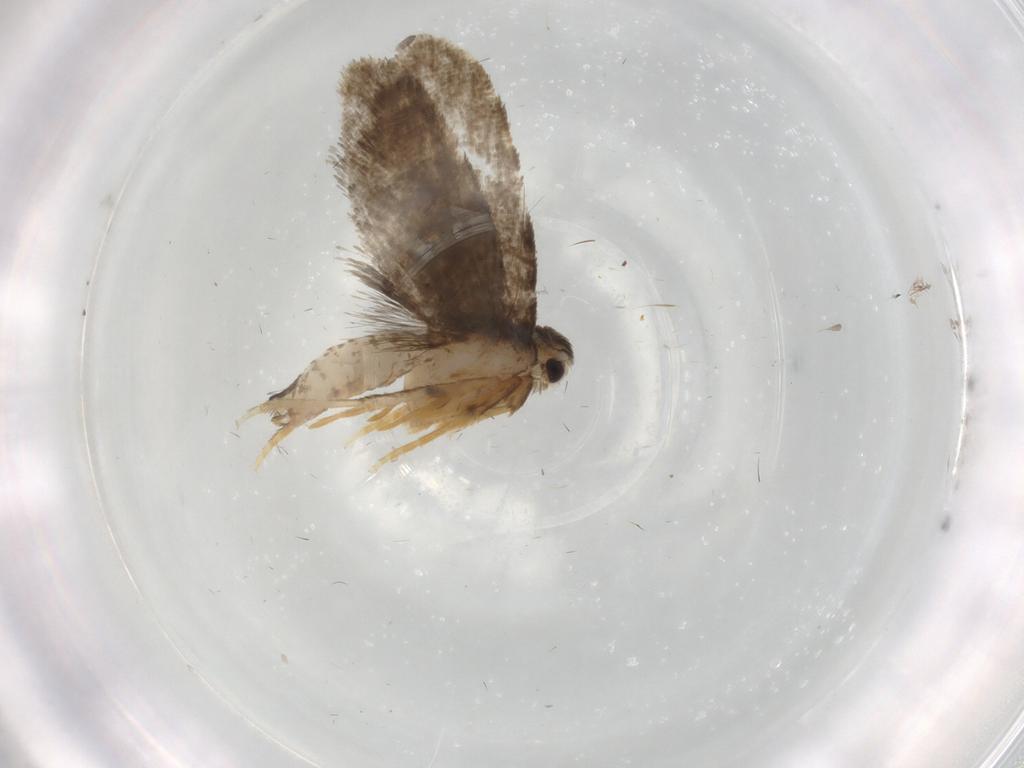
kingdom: Animalia
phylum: Arthropoda
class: Insecta
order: Lepidoptera
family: Psychidae
